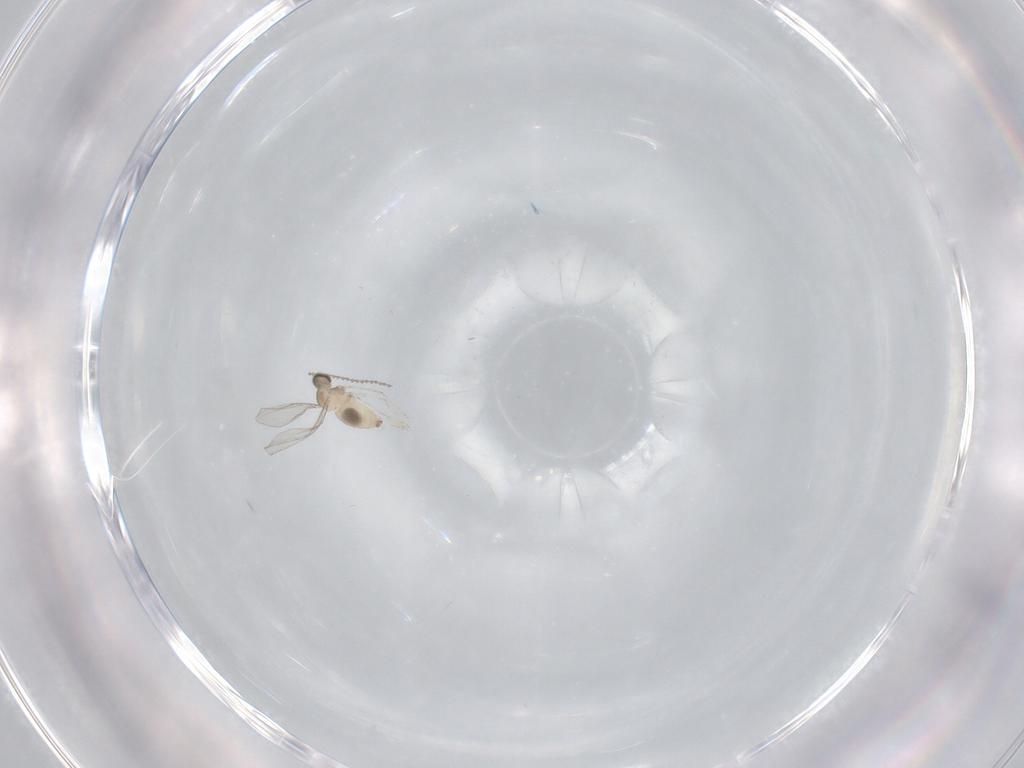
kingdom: Animalia
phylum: Arthropoda
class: Insecta
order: Diptera
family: Cecidomyiidae
